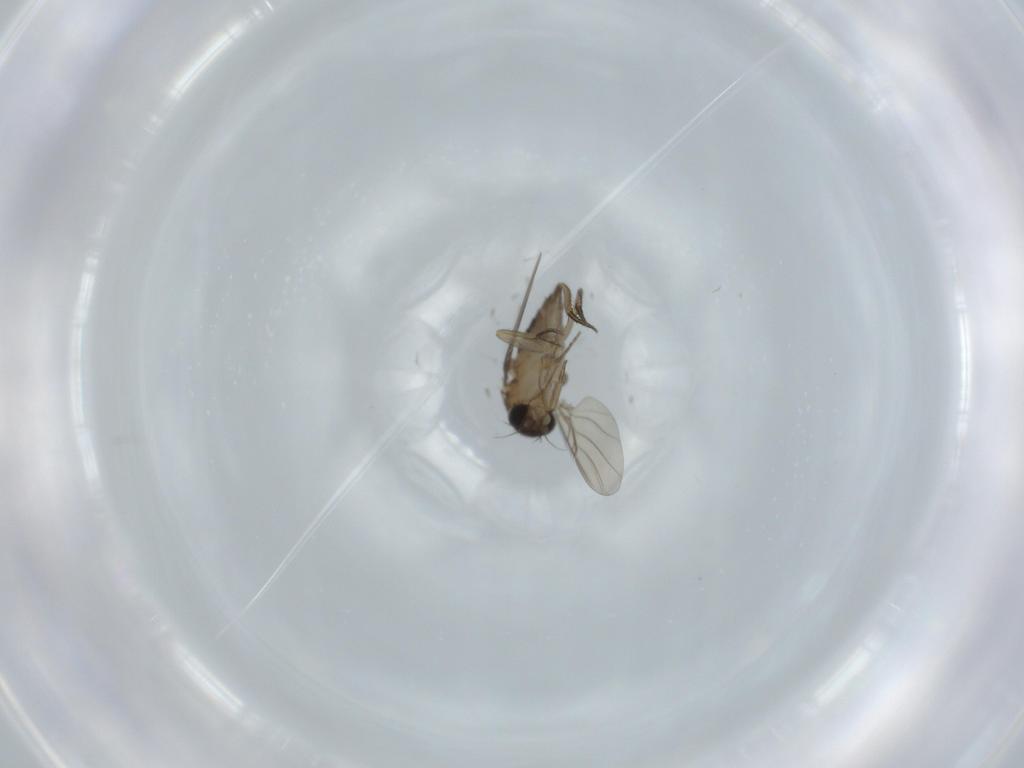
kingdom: Animalia
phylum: Arthropoda
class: Insecta
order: Diptera
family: Phoridae
